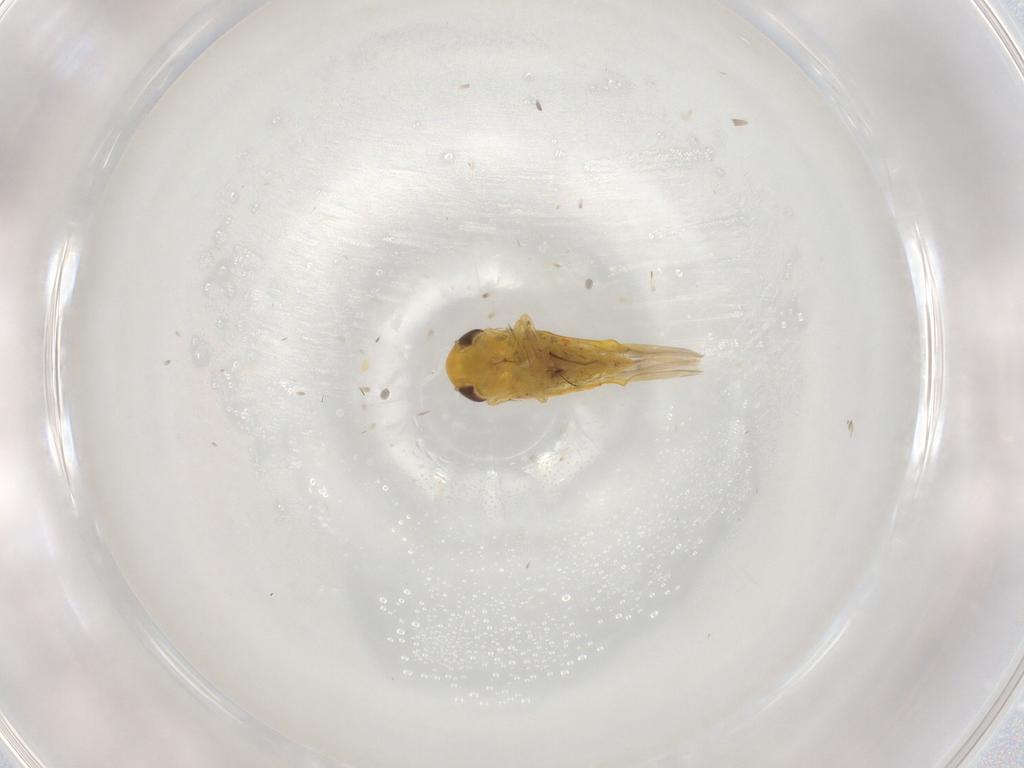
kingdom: Animalia
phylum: Arthropoda
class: Insecta
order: Hemiptera
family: Cicadellidae
